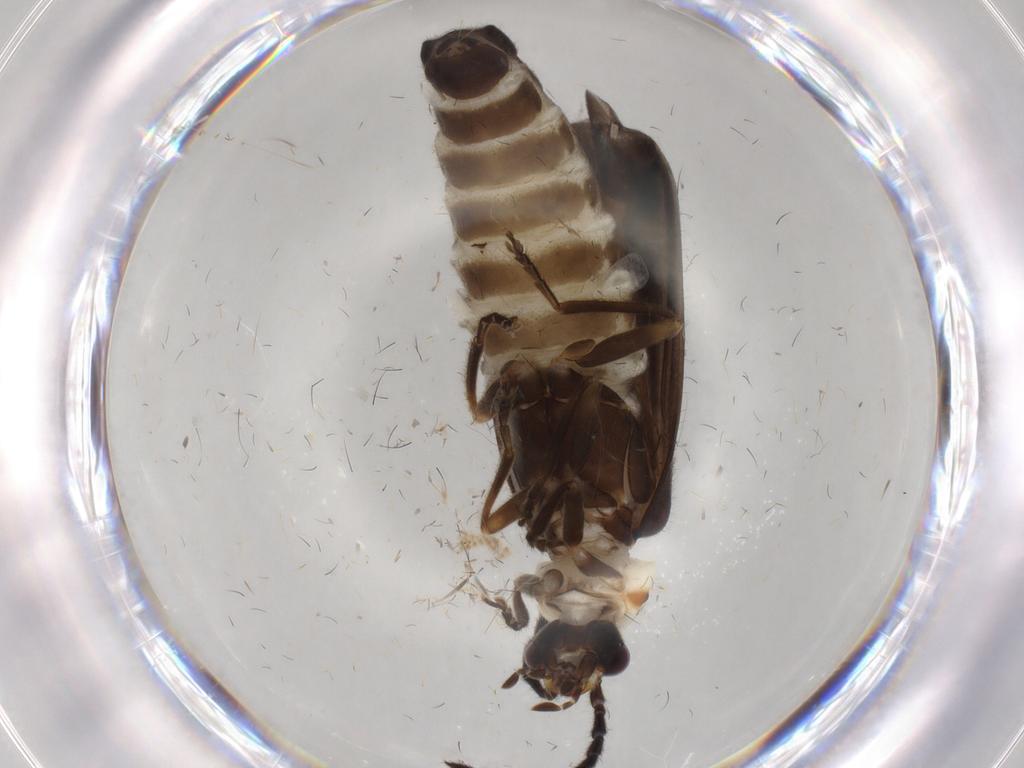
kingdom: Animalia
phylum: Arthropoda
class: Insecta
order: Coleoptera
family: Cantharidae
